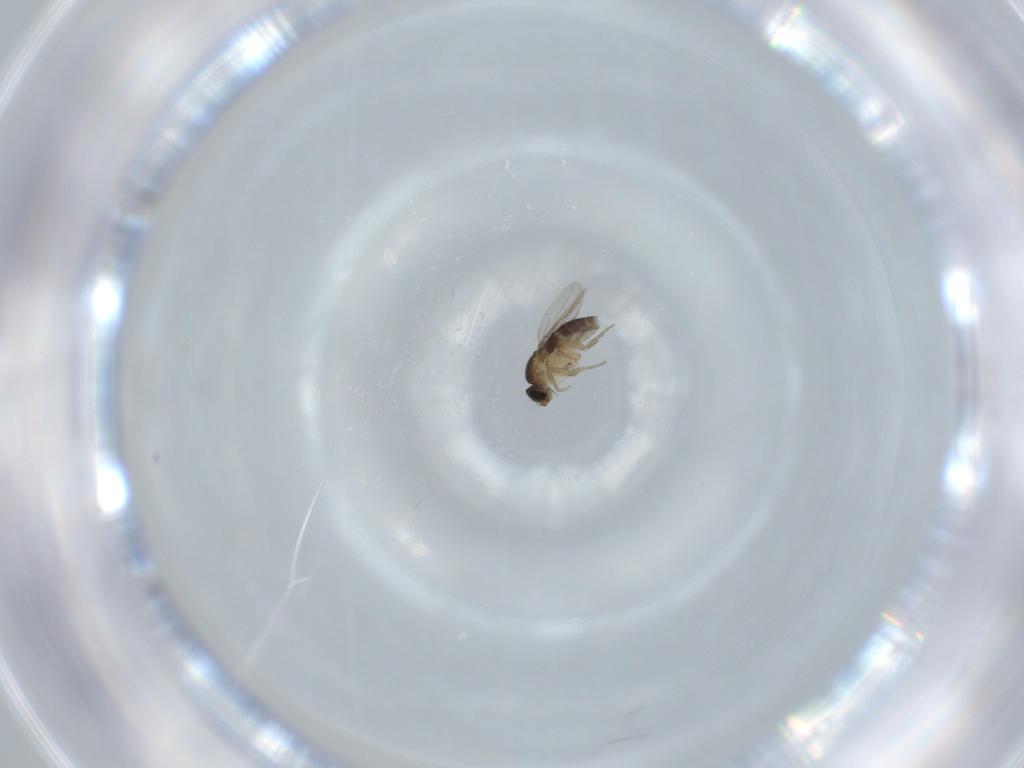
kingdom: Animalia
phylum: Arthropoda
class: Insecta
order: Diptera
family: Phoridae
